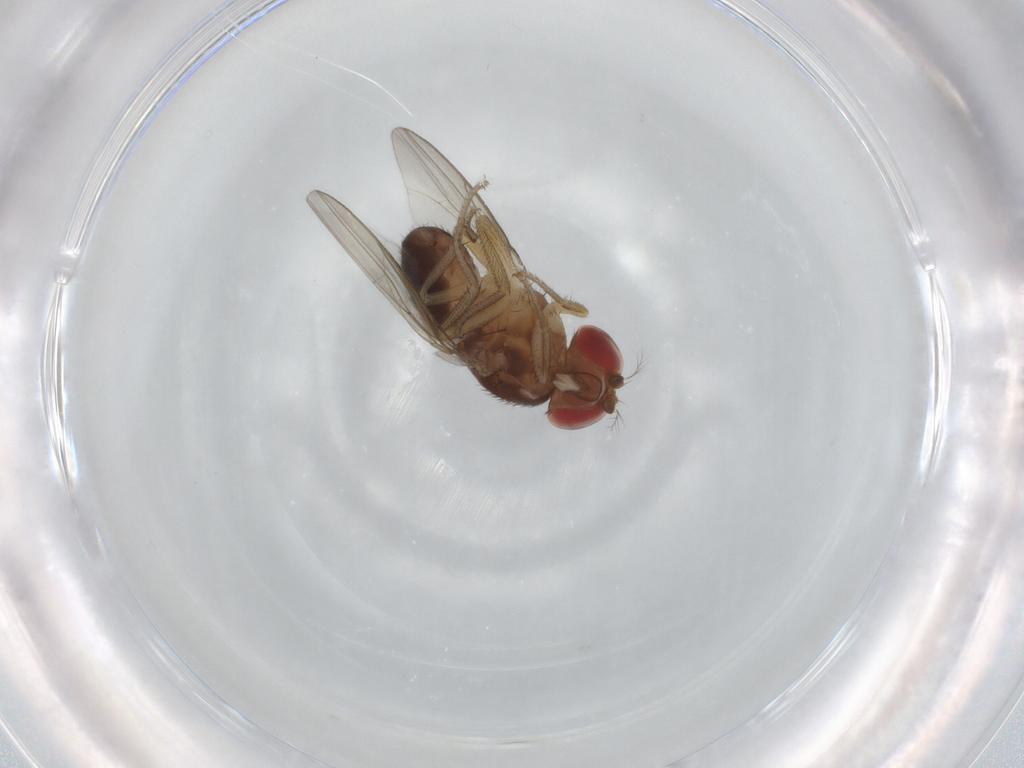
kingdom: Animalia
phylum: Arthropoda
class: Insecta
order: Diptera
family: Drosophilidae
